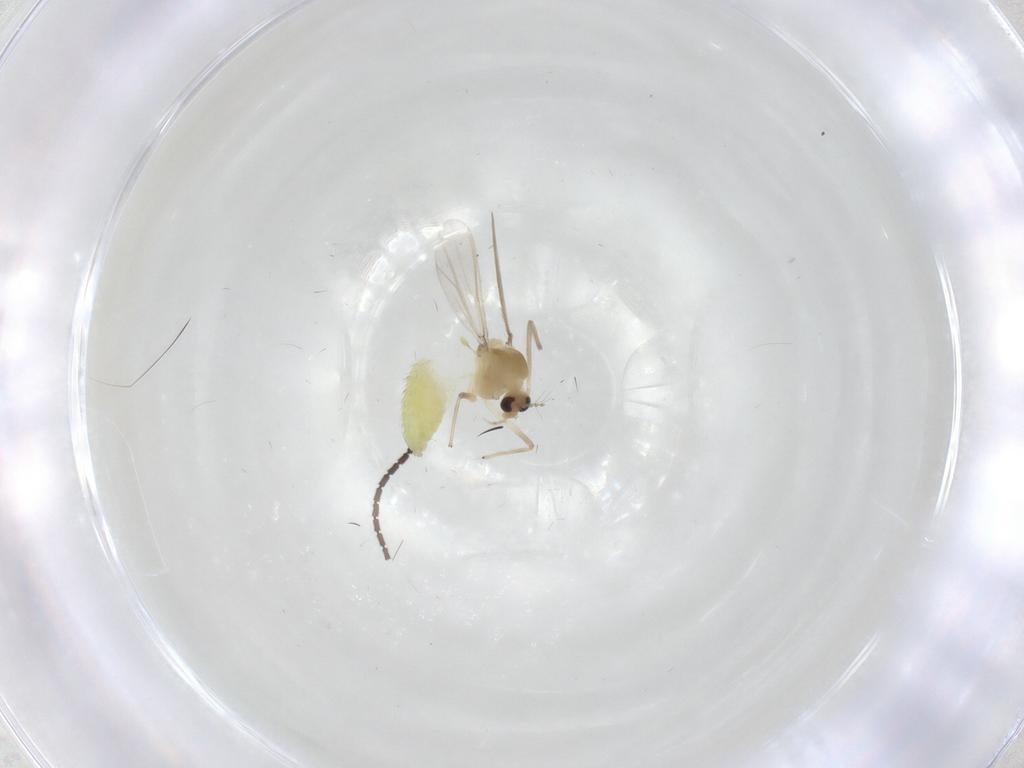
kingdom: Animalia
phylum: Arthropoda
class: Insecta
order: Diptera
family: Chironomidae
